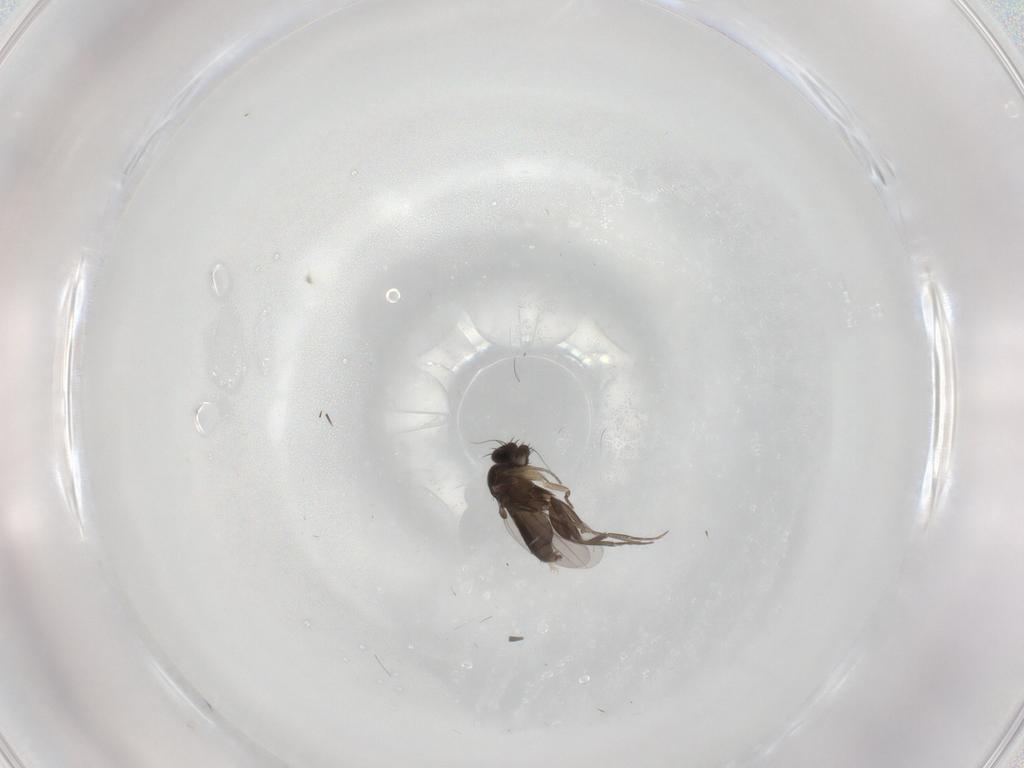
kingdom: Animalia
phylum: Arthropoda
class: Insecta
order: Diptera
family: Phoridae
